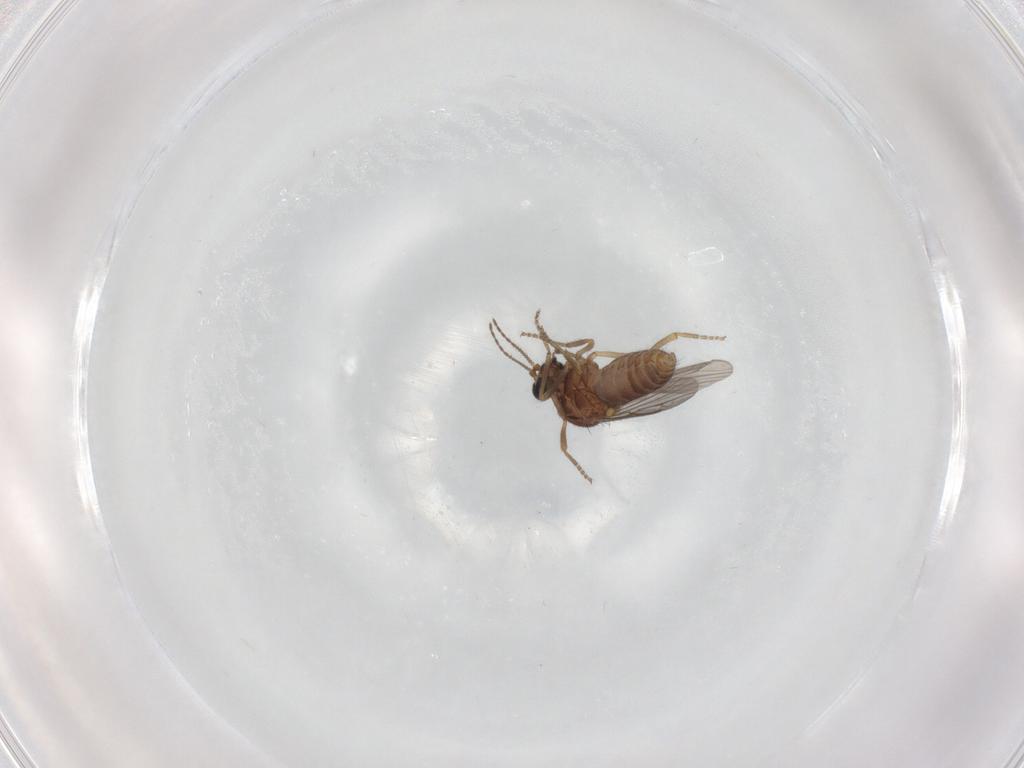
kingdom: Animalia
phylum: Arthropoda
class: Insecta
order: Diptera
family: Ceratopogonidae
